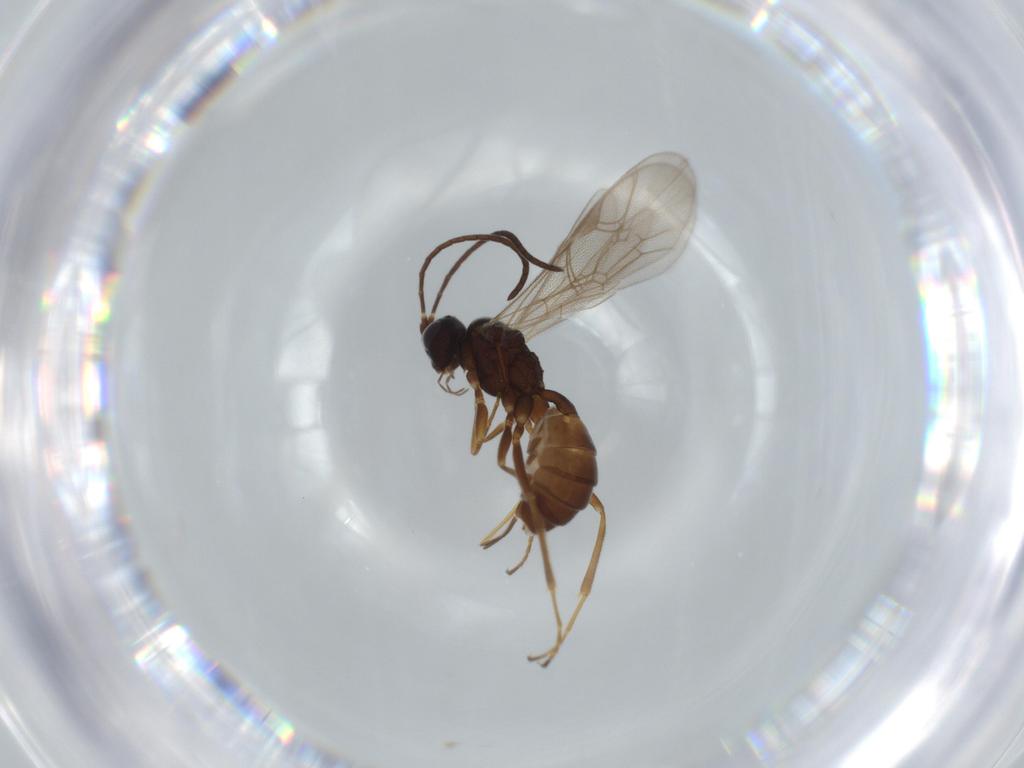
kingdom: Animalia
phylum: Arthropoda
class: Insecta
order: Hymenoptera
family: Ichneumonidae
